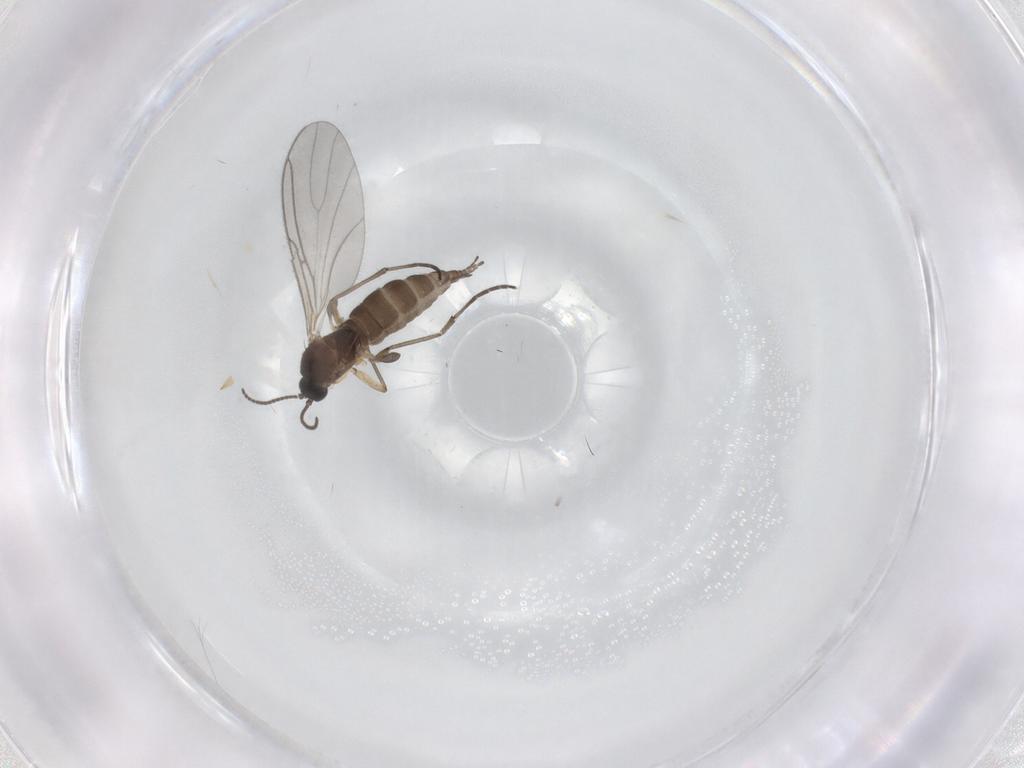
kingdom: Animalia
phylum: Arthropoda
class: Insecta
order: Diptera
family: Sciaridae
